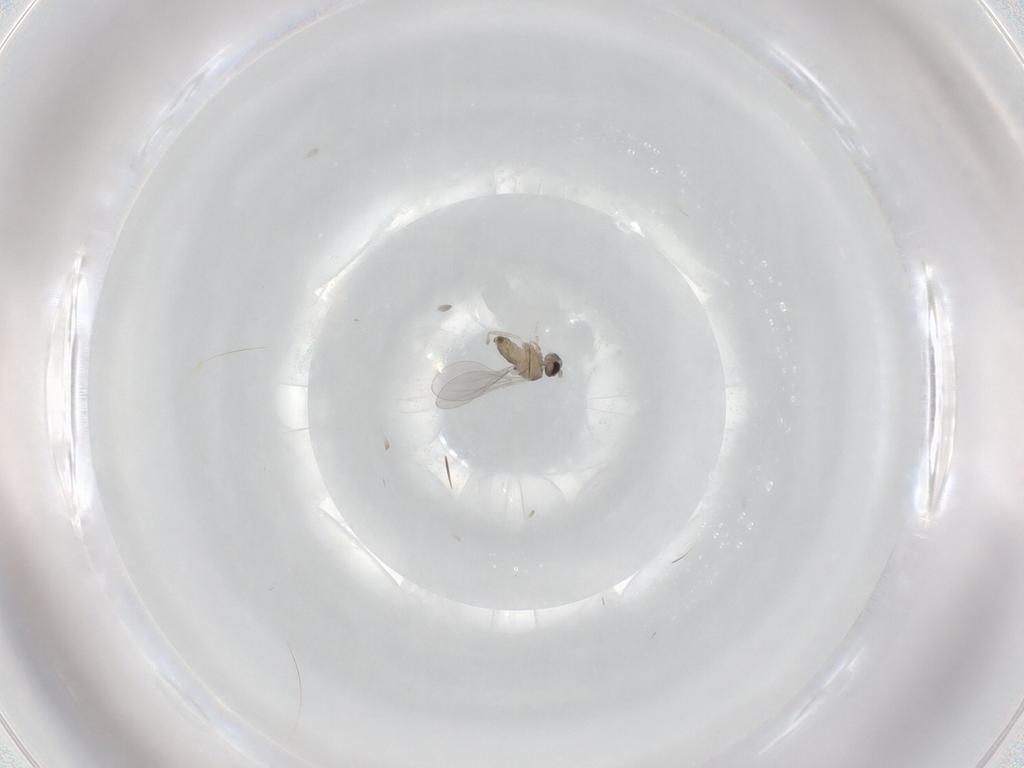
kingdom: Animalia
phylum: Arthropoda
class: Insecta
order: Diptera
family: Cecidomyiidae
